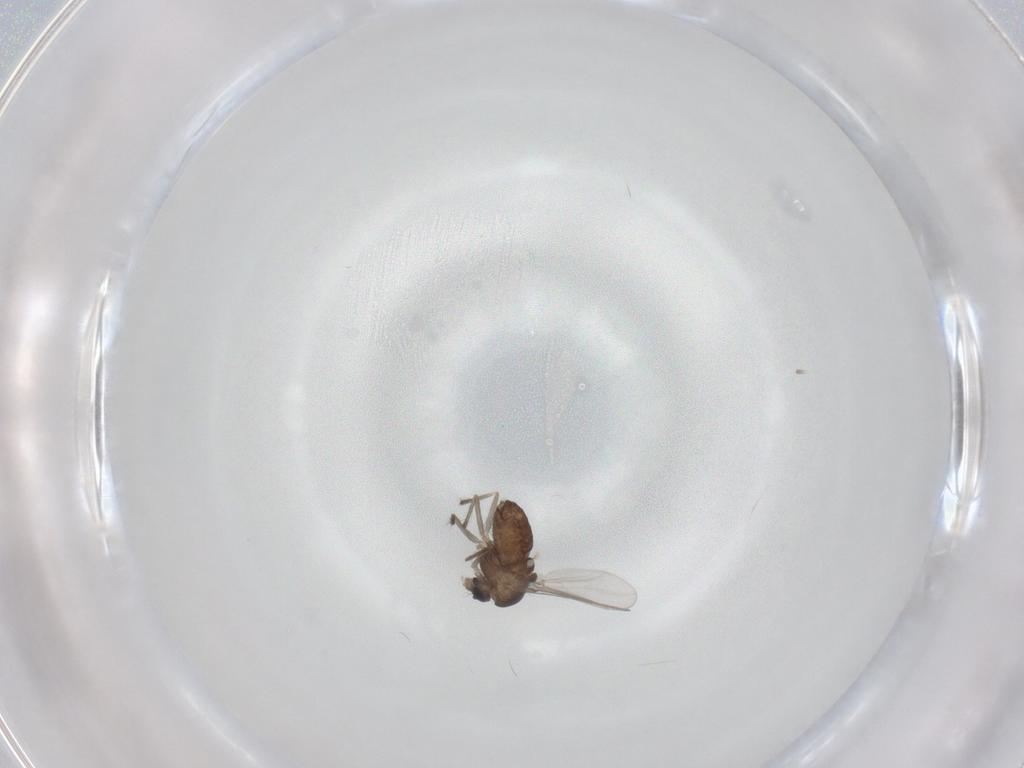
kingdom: Animalia
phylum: Arthropoda
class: Insecta
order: Diptera
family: Chironomidae
